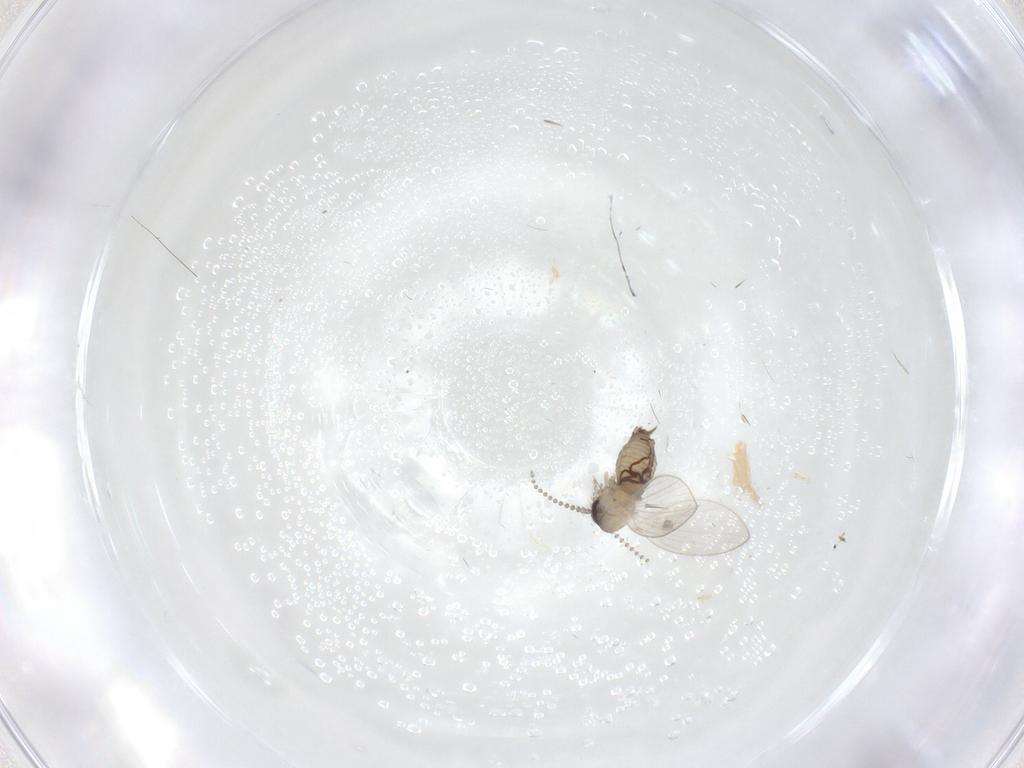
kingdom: Animalia
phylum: Arthropoda
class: Insecta
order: Diptera
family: Psychodidae
